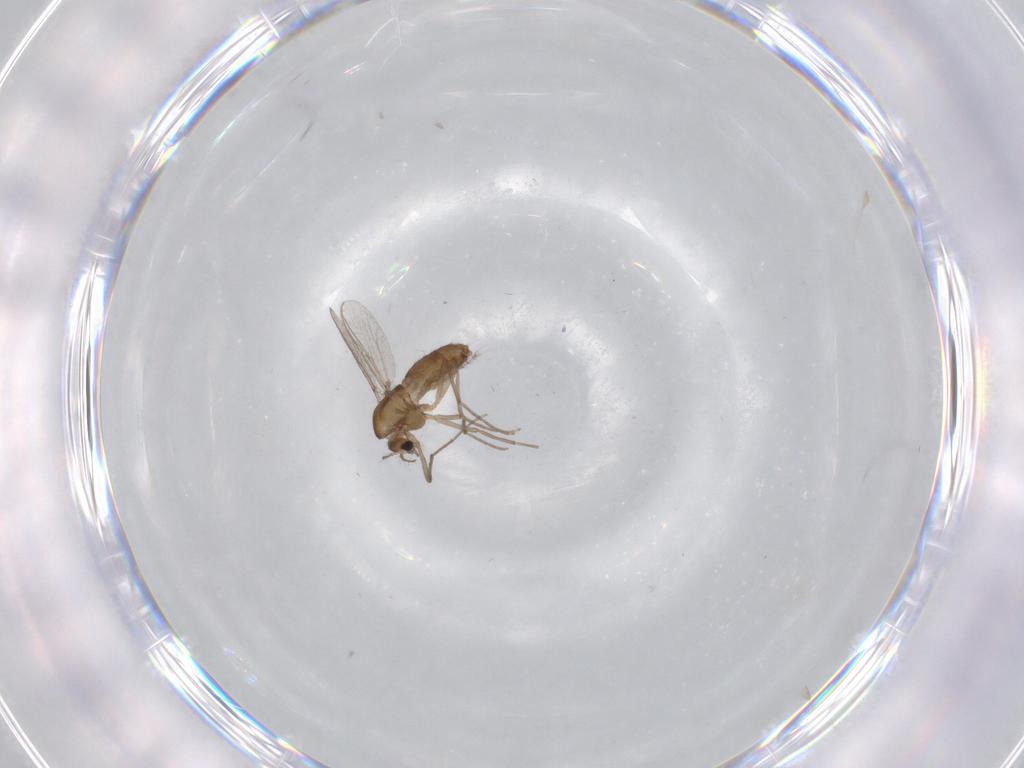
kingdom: Animalia
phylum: Arthropoda
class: Insecta
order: Diptera
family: Chironomidae
